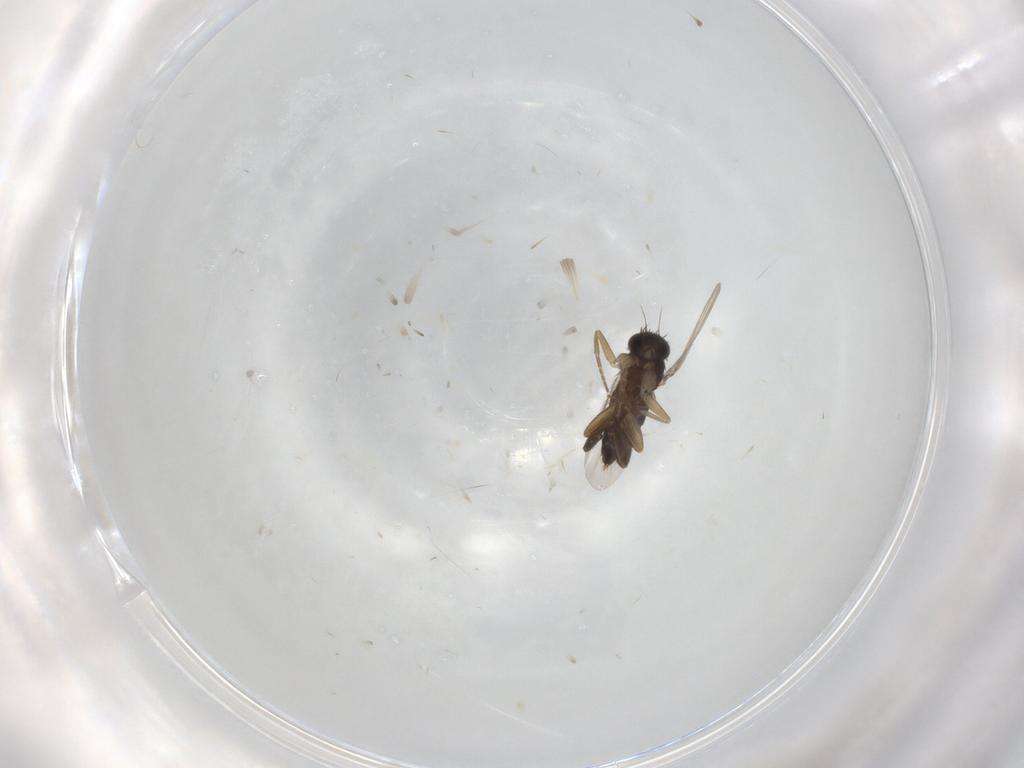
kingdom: Animalia
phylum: Arthropoda
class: Insecta
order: Diptera
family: Phoridae
